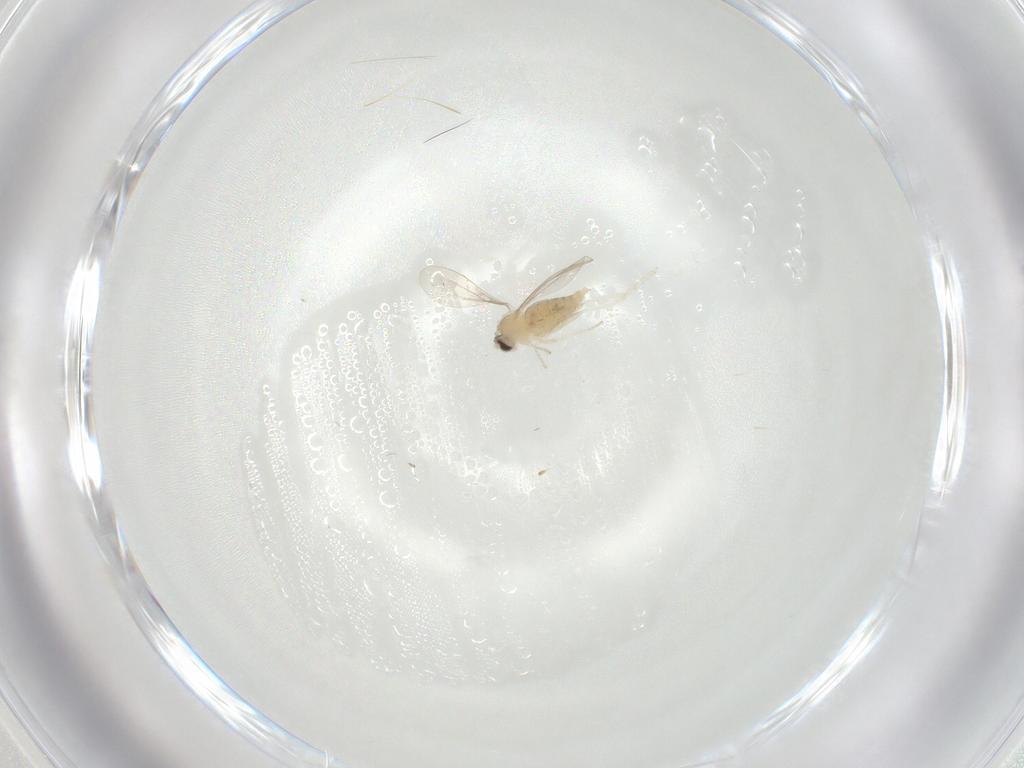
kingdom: Animalia
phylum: Arthropoda
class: Insecta
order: Diptera
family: Cecidomyiidae
